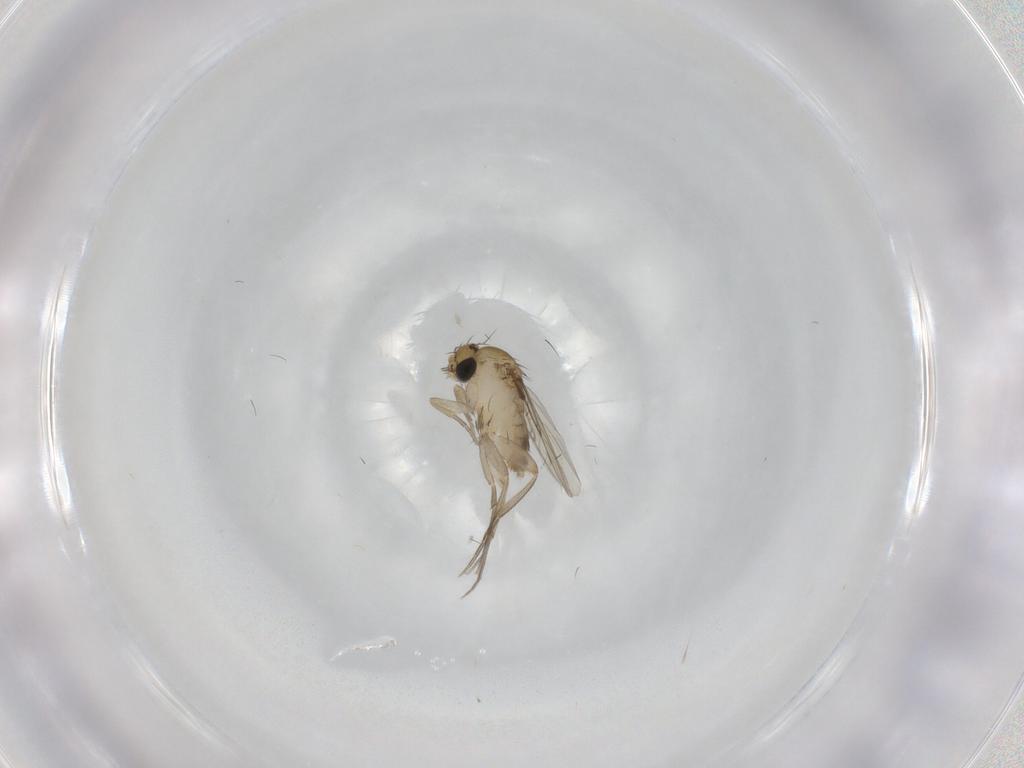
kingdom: Animalia
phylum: Arthropoda
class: Insecta
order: Diptera
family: Phoridae
